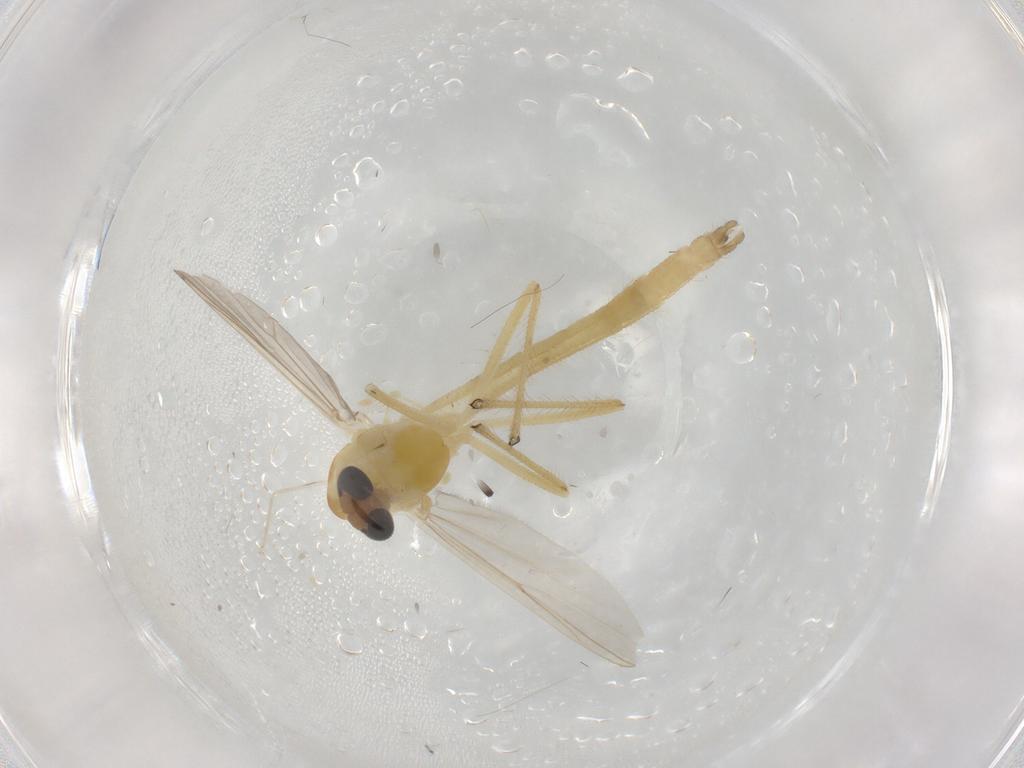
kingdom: Animalia
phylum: Arthropoda
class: Insecta
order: Diptera
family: Chironomidae
